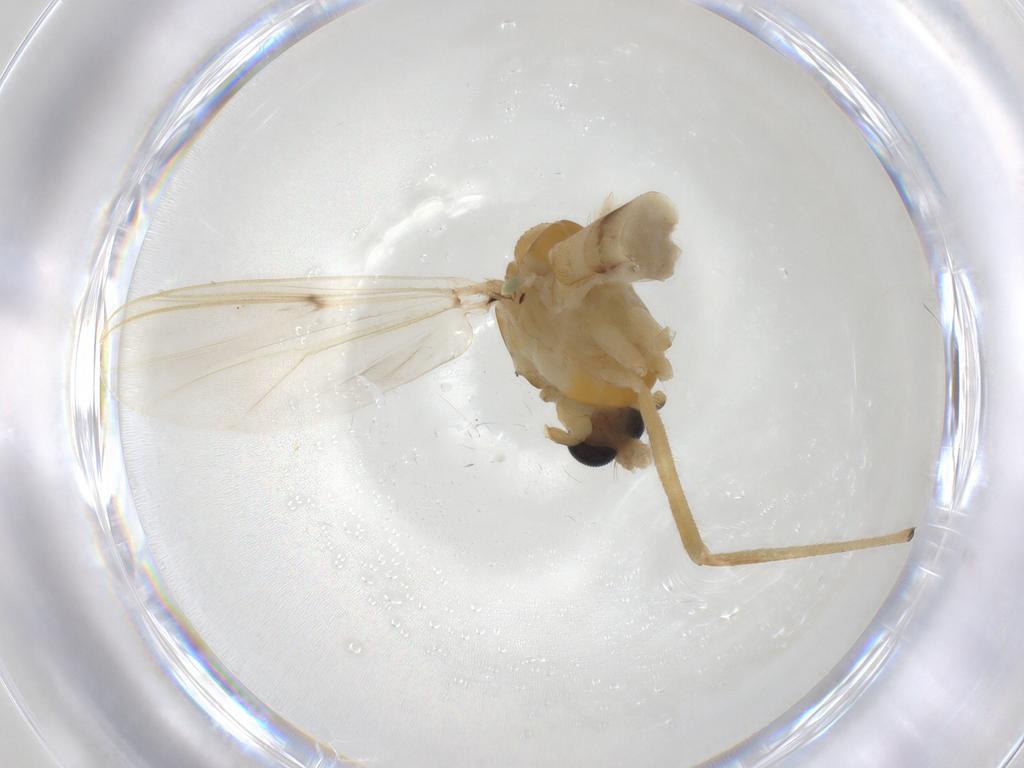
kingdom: Animalia
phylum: Arthropoda
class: Insecta
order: Diptera
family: Chironomidae
